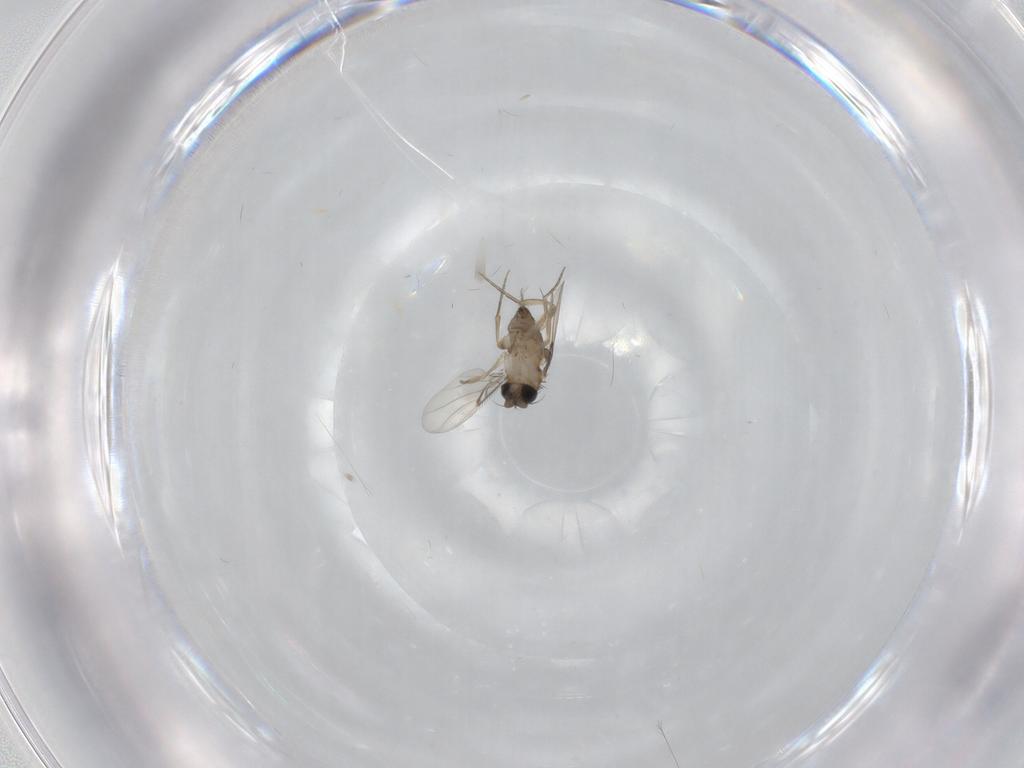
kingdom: Animalia
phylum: Arthropoda
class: Insecta
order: Diptera
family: Phoridae
